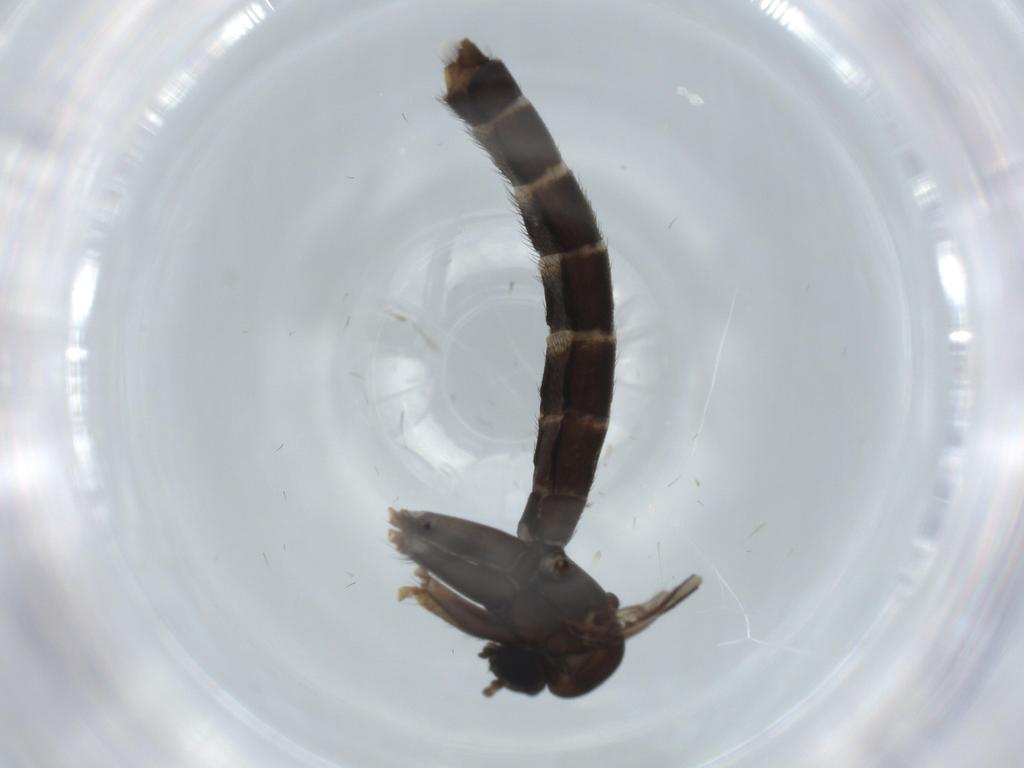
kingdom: Animalia
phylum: Arthropoda
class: Insecta
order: Diptera
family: Ditomyiidae
